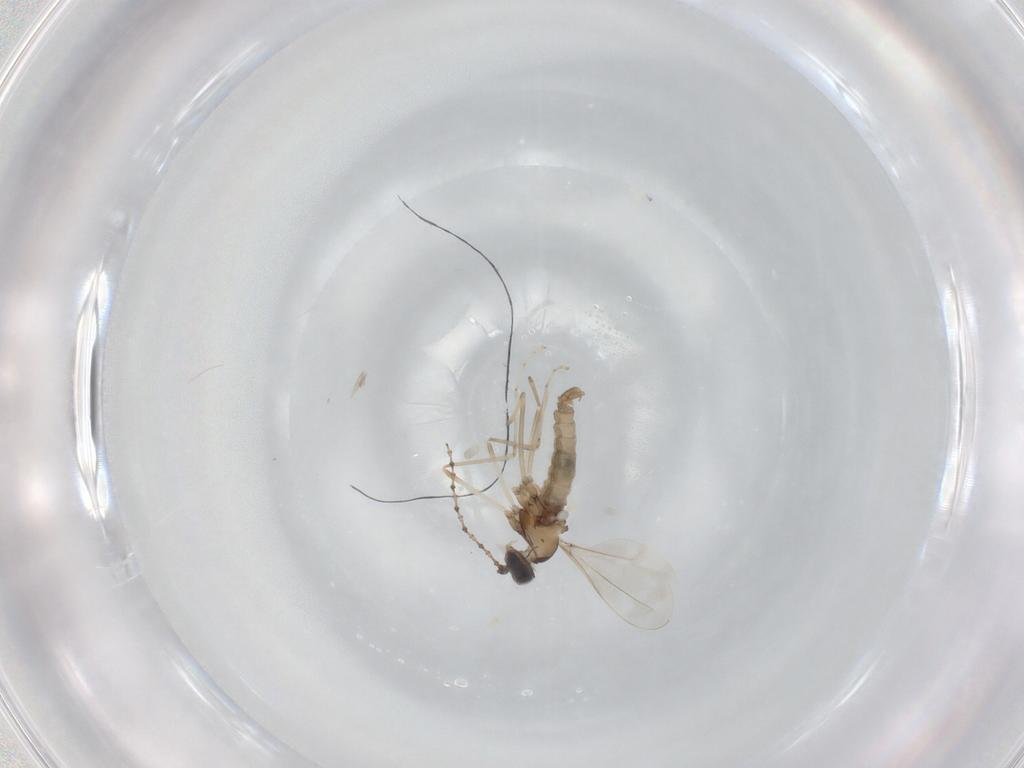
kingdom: Animalia
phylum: Arthropoda
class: Insecta
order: Diptera
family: Cecidomyiidae
